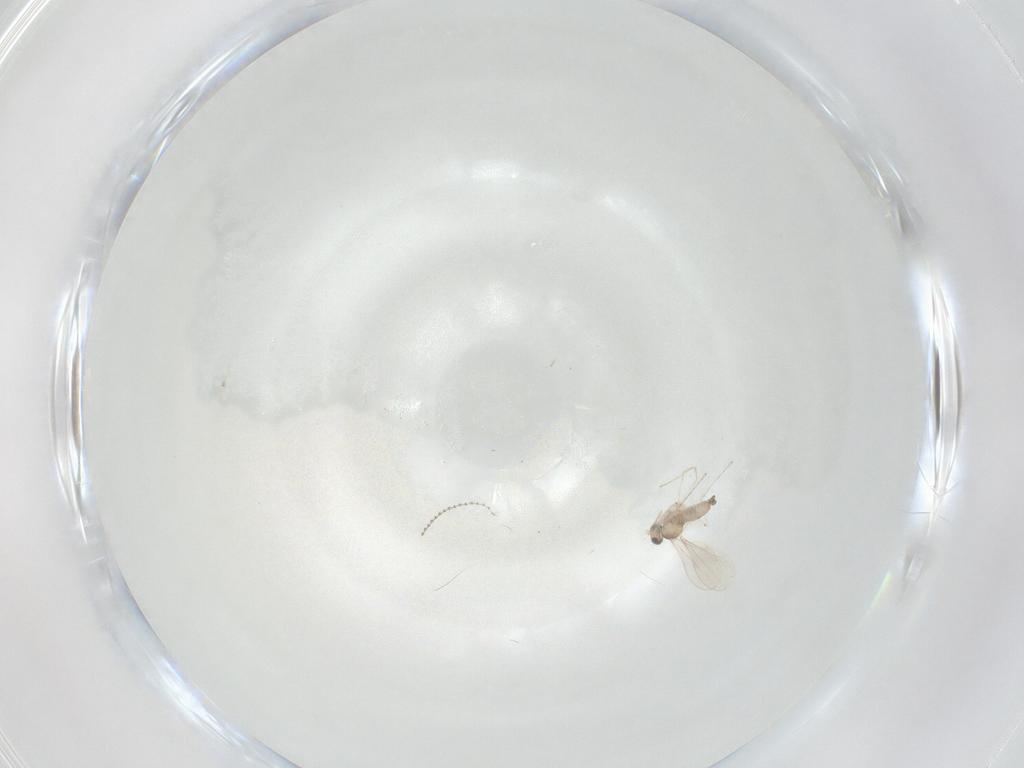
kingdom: Animalia
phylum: Arthropoda
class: Insecta
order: Diptera
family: Cecidomyiidae
